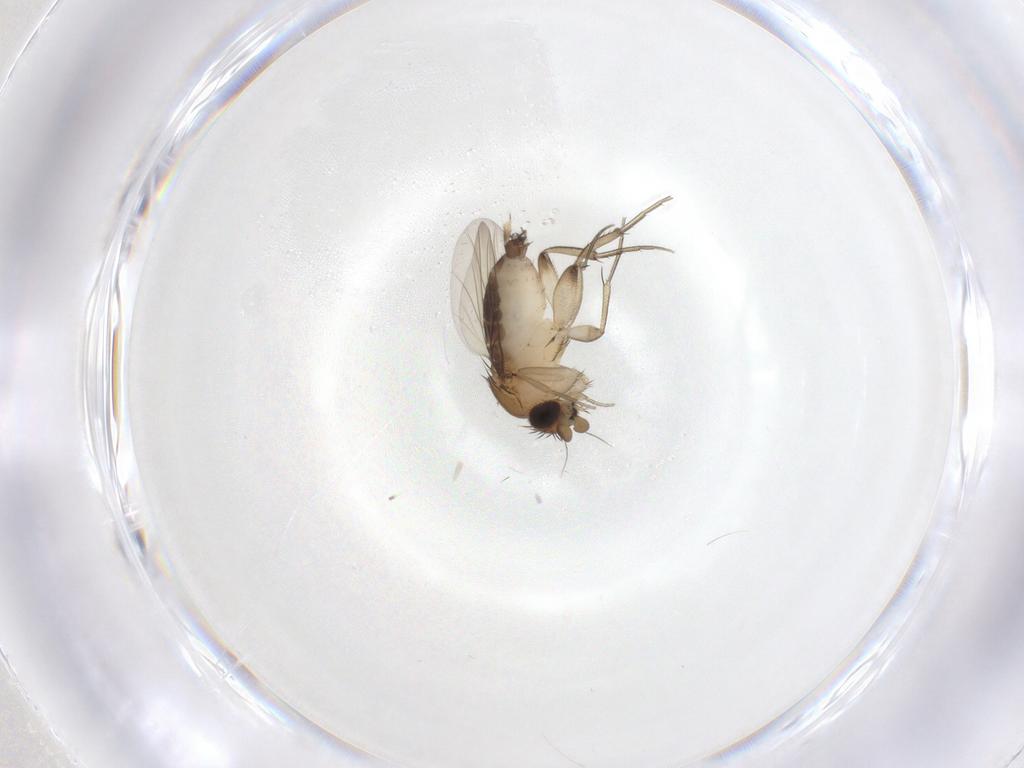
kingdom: Animalia
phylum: Arthropoda
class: Insecta
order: Diptera
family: Phoridae
